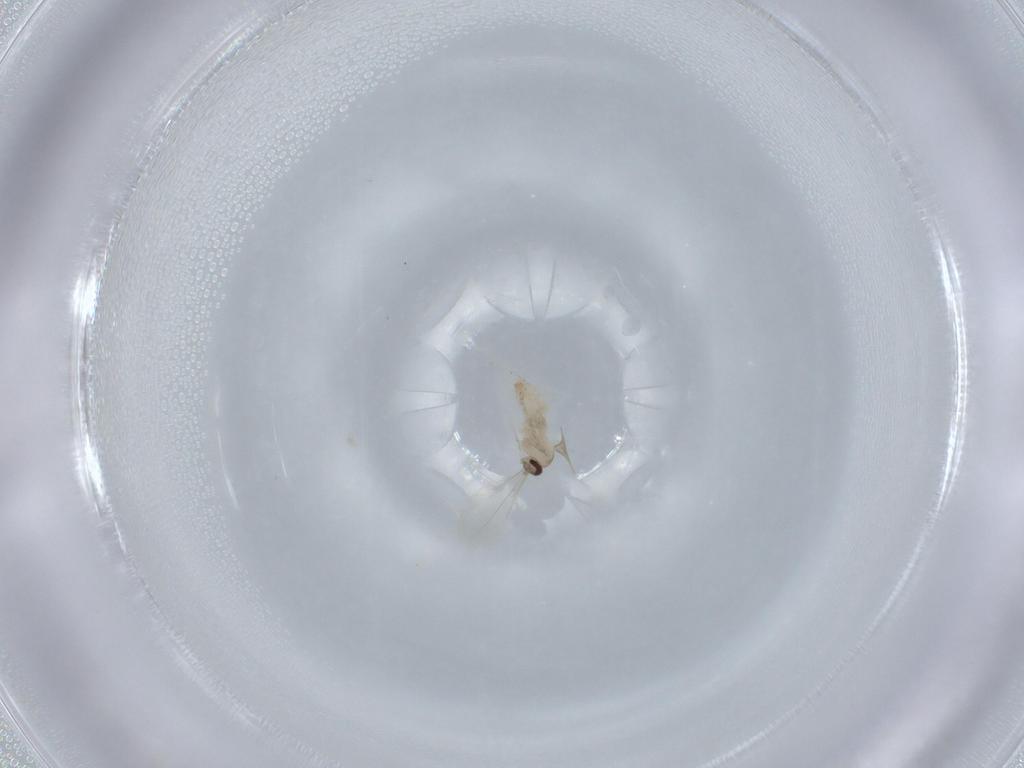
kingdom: Animalia
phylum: Arthropoda
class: Insecta
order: Diptera
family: Cecidomyiidae
